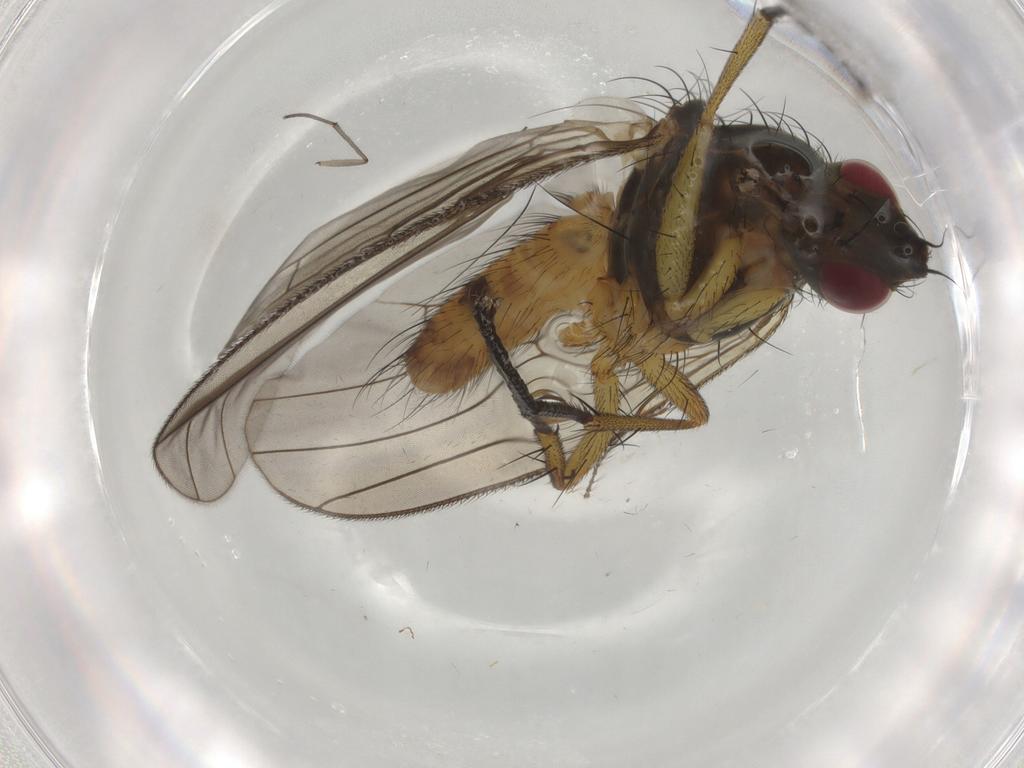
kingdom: Animalia
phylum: Arthropoda
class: Insecta
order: Diptera
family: Muscidae
